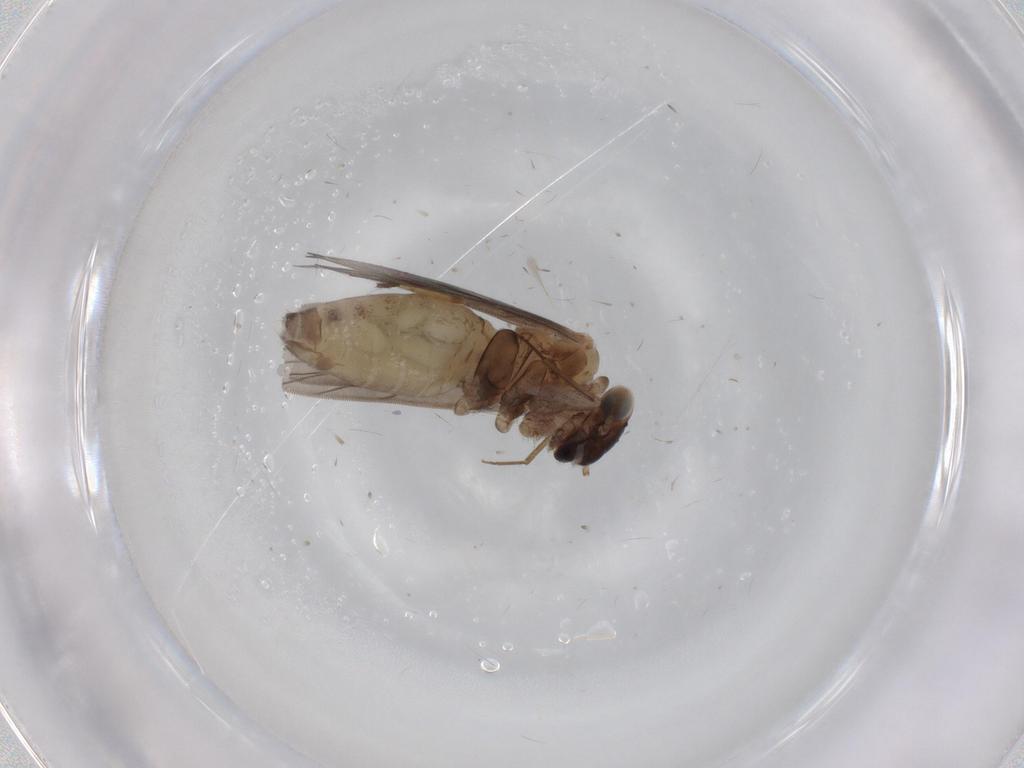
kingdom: Animalia
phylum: Arthropoda
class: Insecta
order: Psocodea
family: Lepidopsocidae
